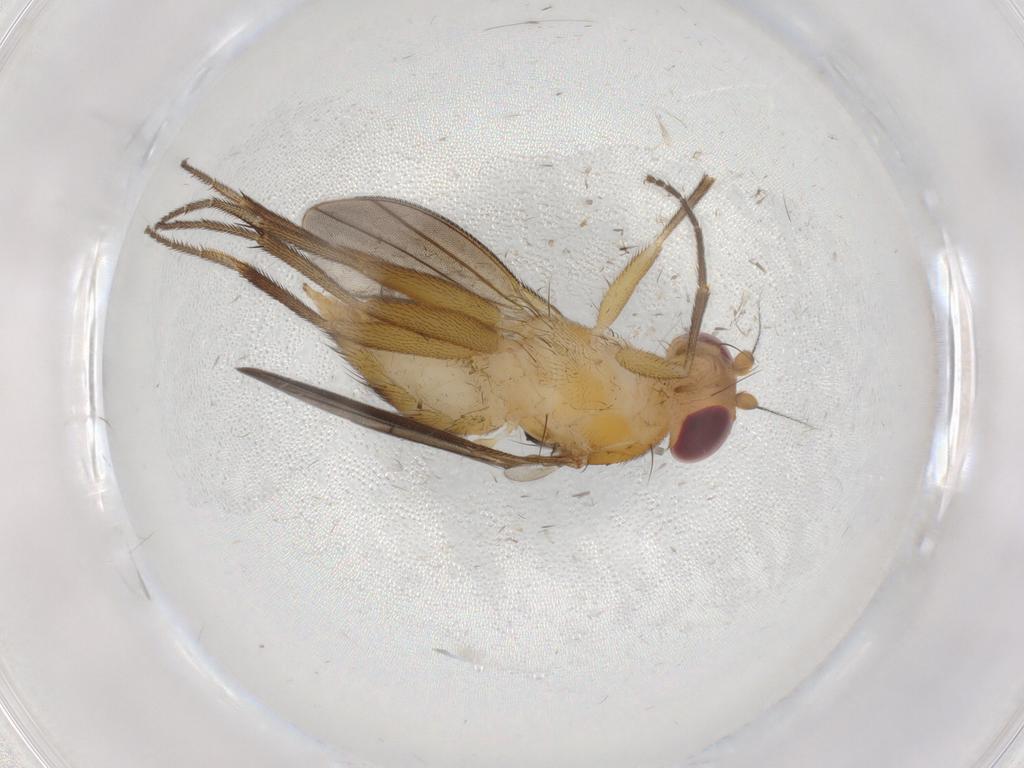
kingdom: Animalia
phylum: Arthropoda
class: Insecta
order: Diptera
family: Clusiidae
